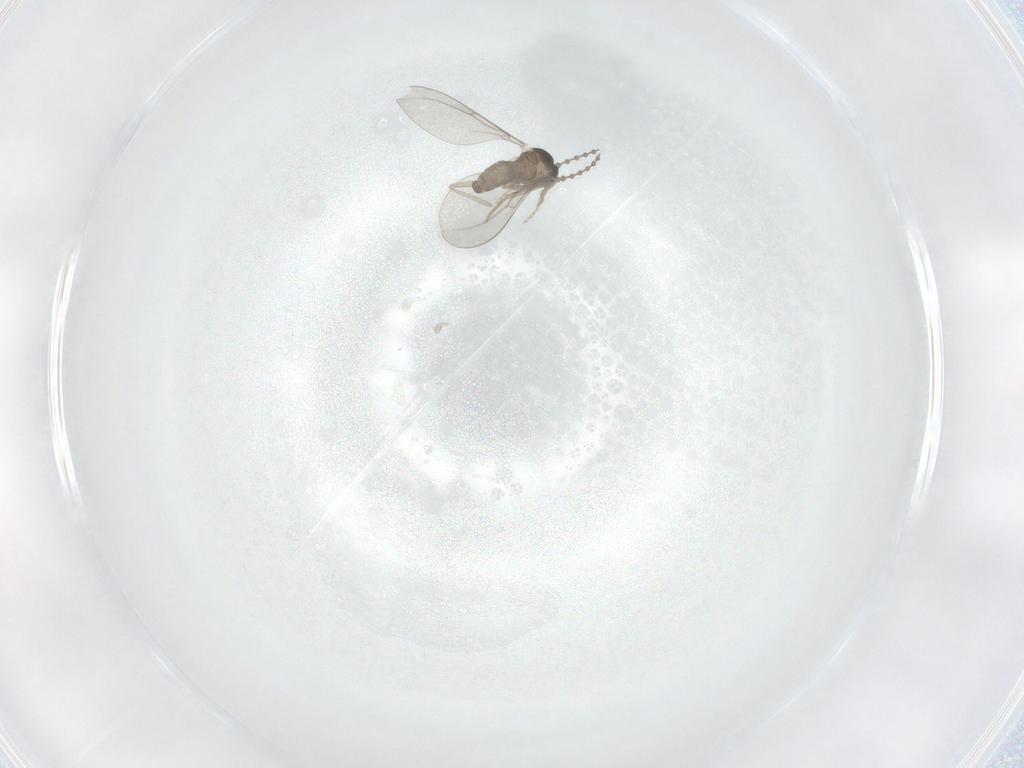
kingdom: Animalia
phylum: Arthropoda
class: Insecta
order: Diptera
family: Cecidomyiidae
